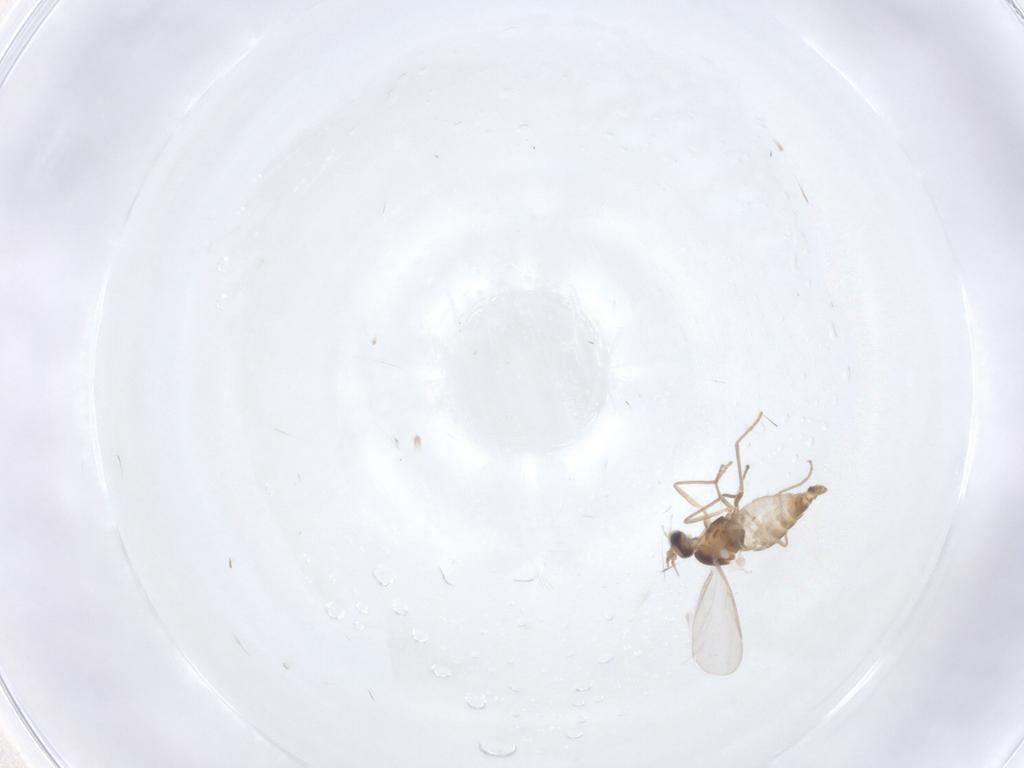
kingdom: Animalia
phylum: Arthropoda
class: Insecta
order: Diptera
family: Cecidomyiidae
